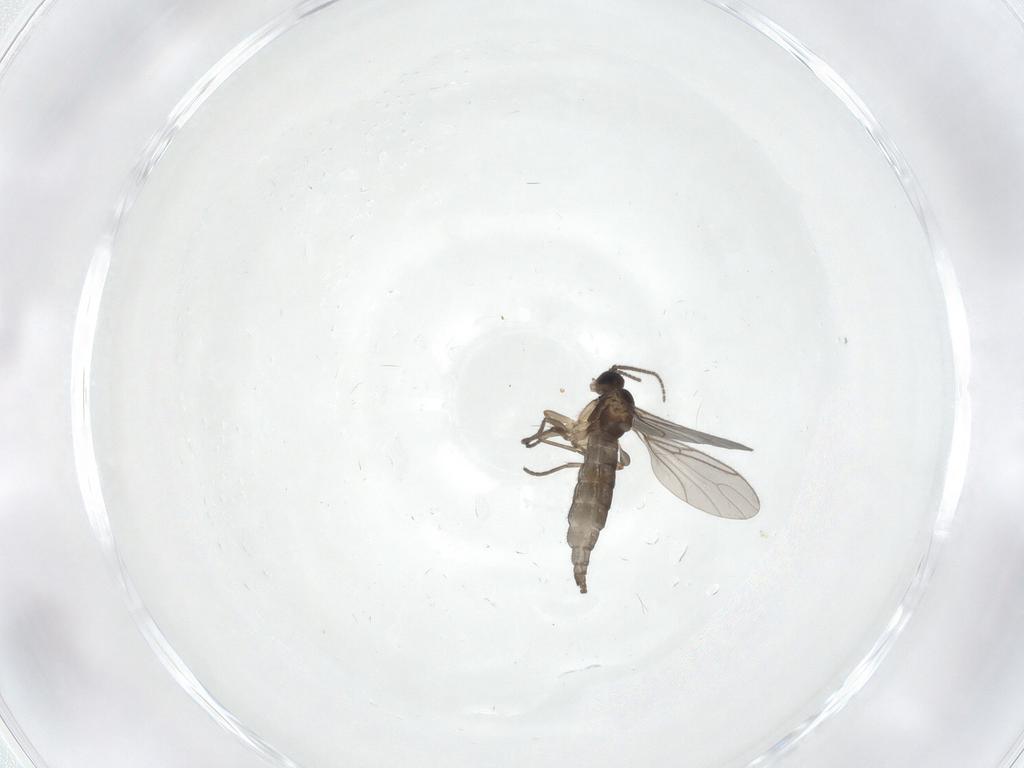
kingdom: Animalia
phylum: Arthropoda
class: Insecta
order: Diptera
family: Sciaridae
